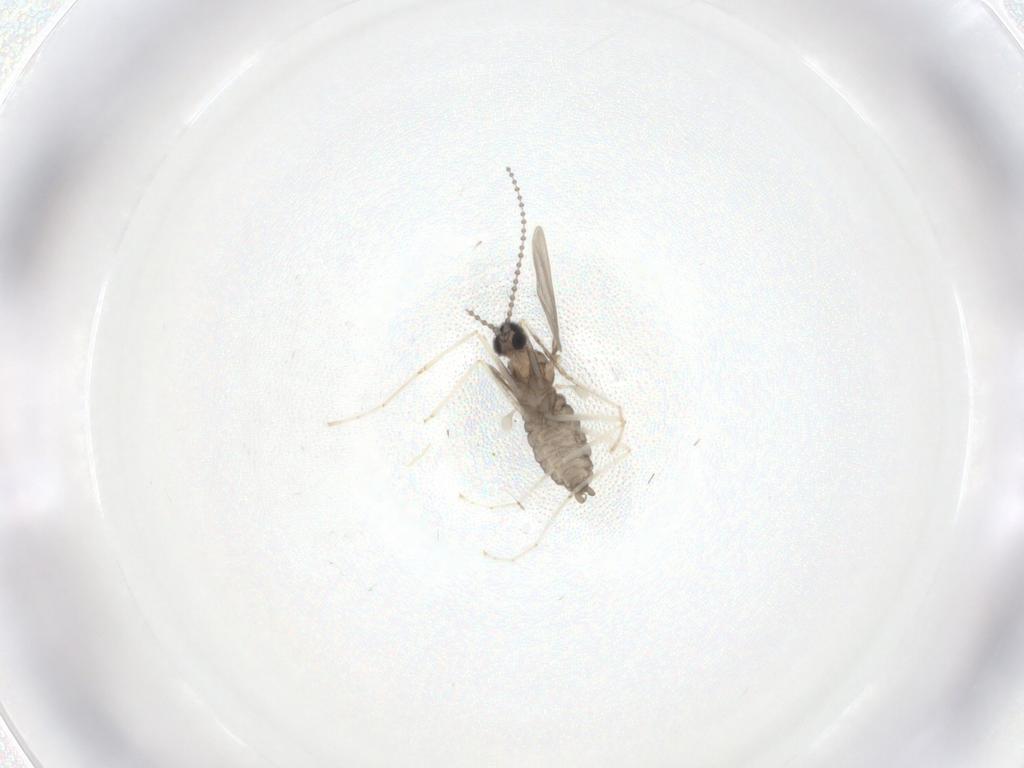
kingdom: Animalia
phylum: Arthropoda
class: Insecta
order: Diptera
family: Cecidomyiidae
